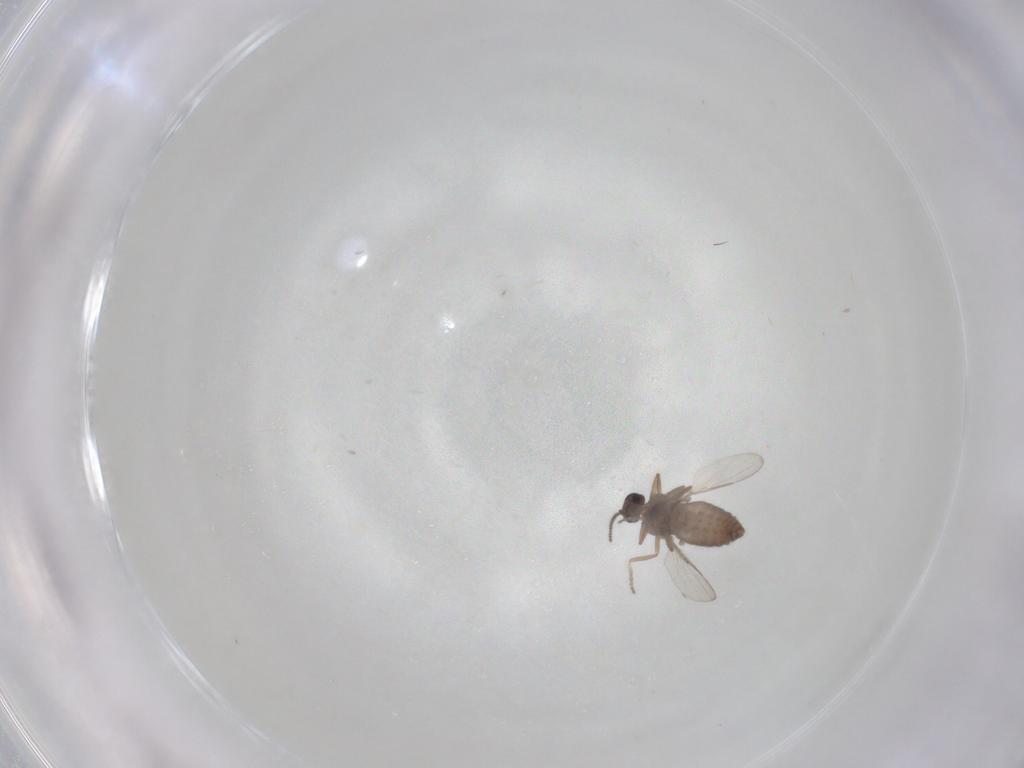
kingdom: Animalia
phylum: Arthropoda
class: Insecta
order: Diptera
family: Ceratopogonidae
